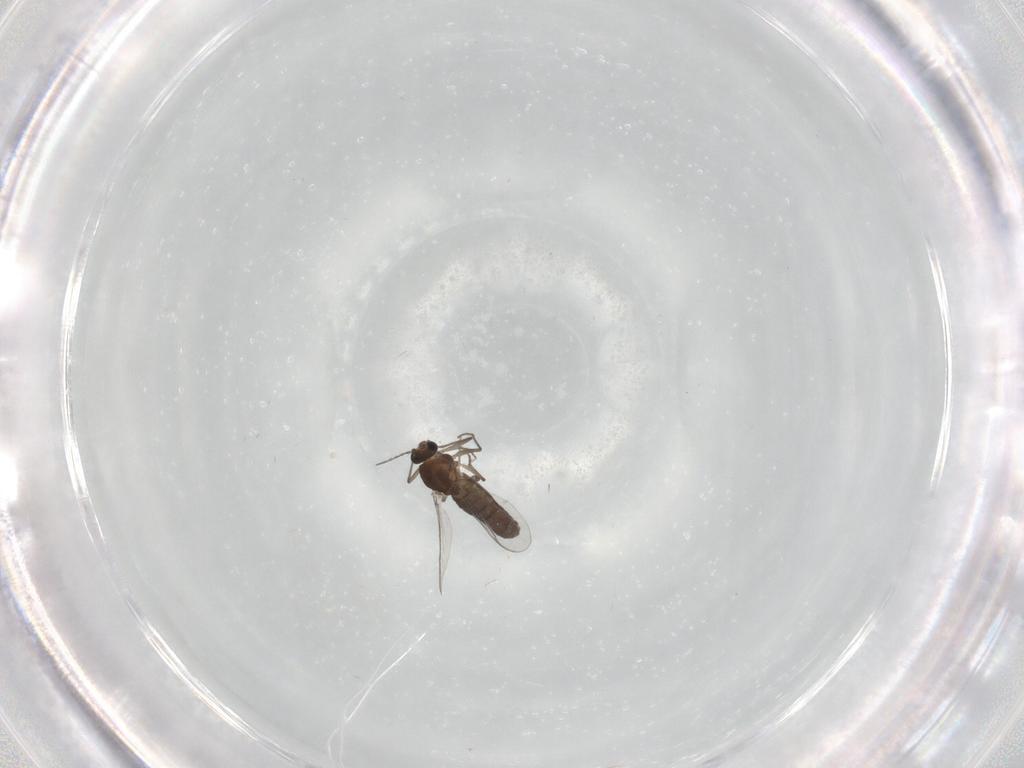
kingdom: Animalia
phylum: Arthropoda
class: Insecta
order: Diptera
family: Chironomidae
